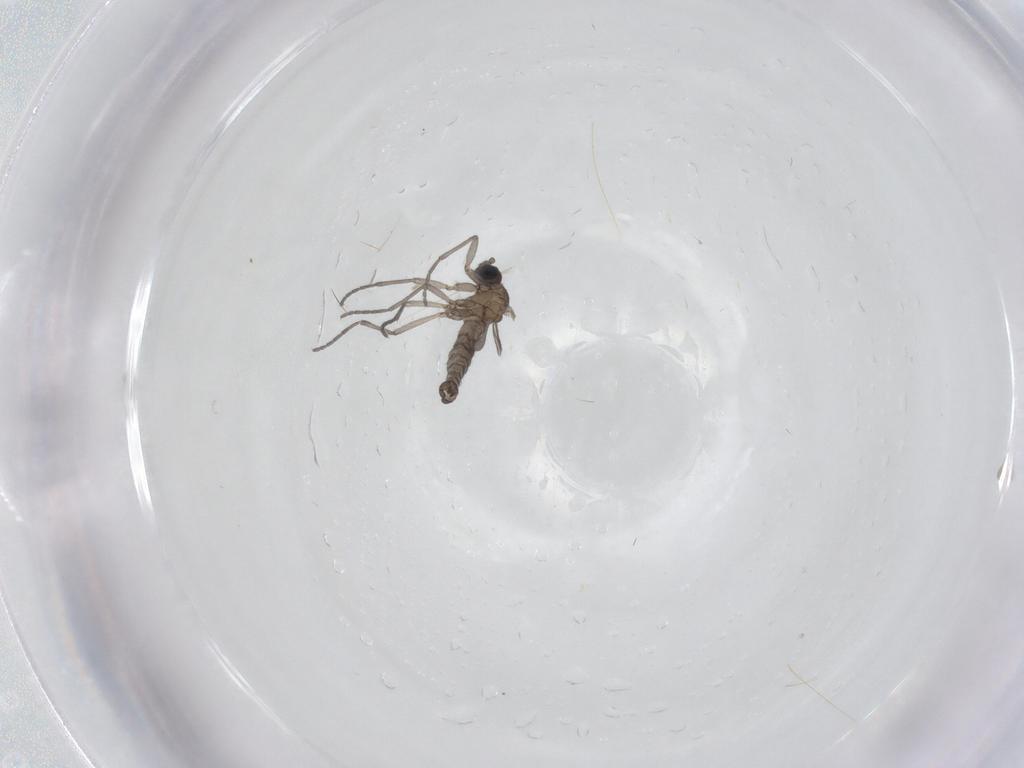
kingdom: Animalia
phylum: Arthropoda
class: Insecta
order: Diptera
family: Sciaridae
